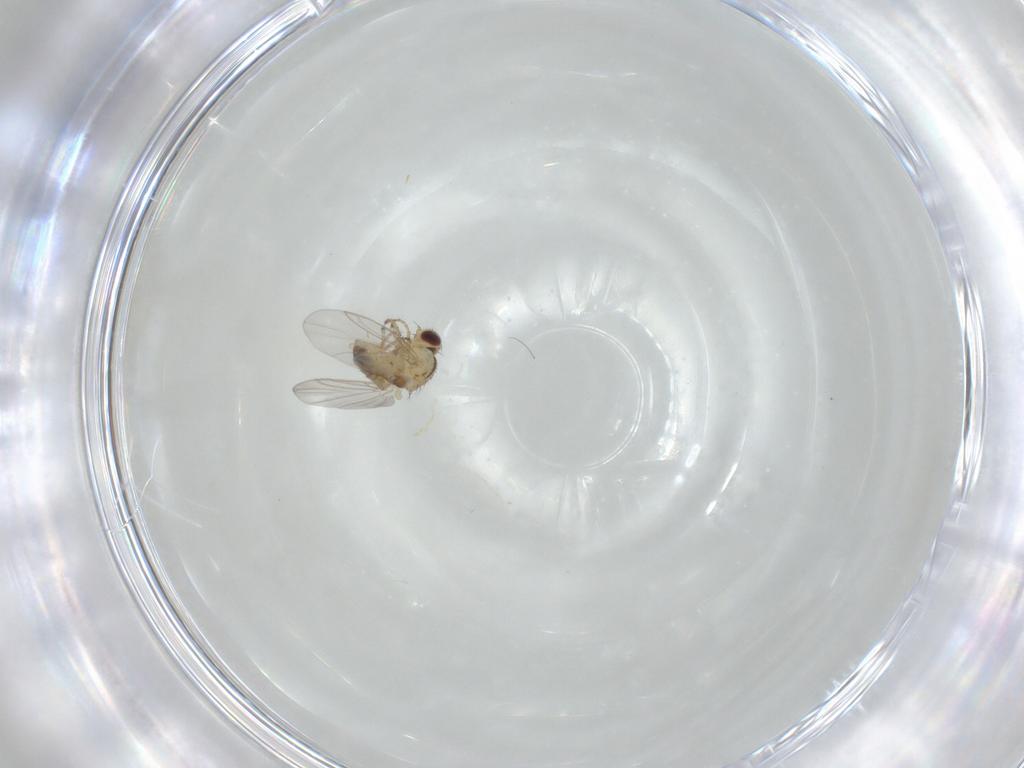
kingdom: Animalia
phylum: Arthropoda
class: Insecta
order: Diptera
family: Agromyzidae
